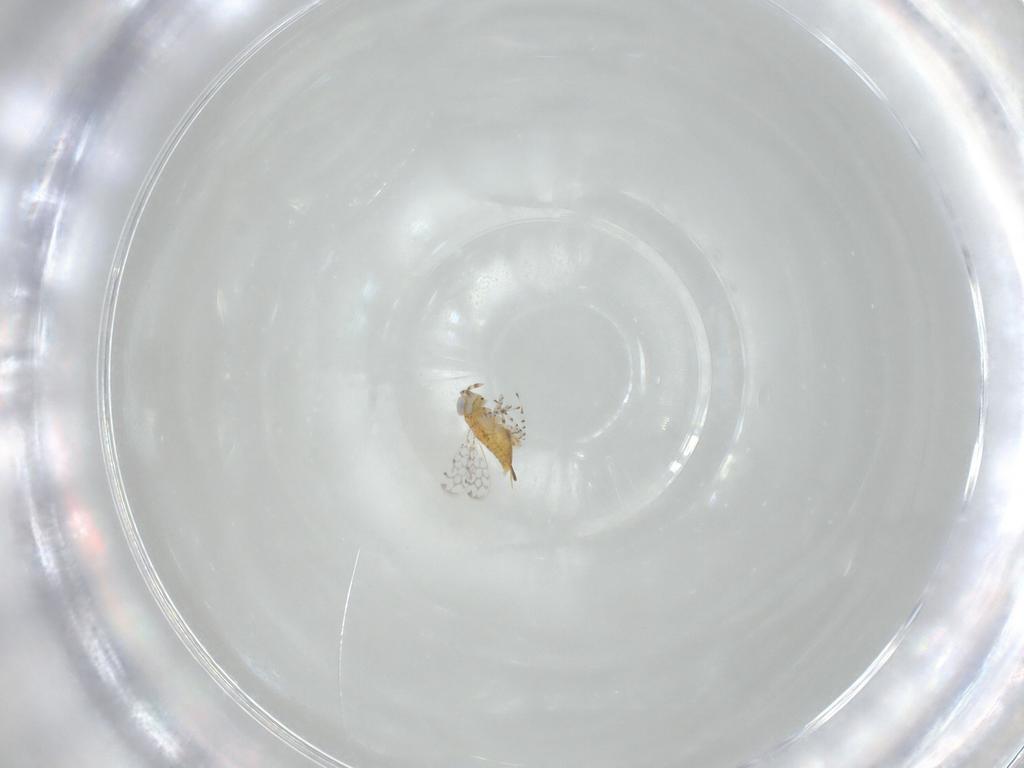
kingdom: Animalia
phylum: Arthropoda
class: Insecta
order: Hymenoptera
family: Aphelinidae
